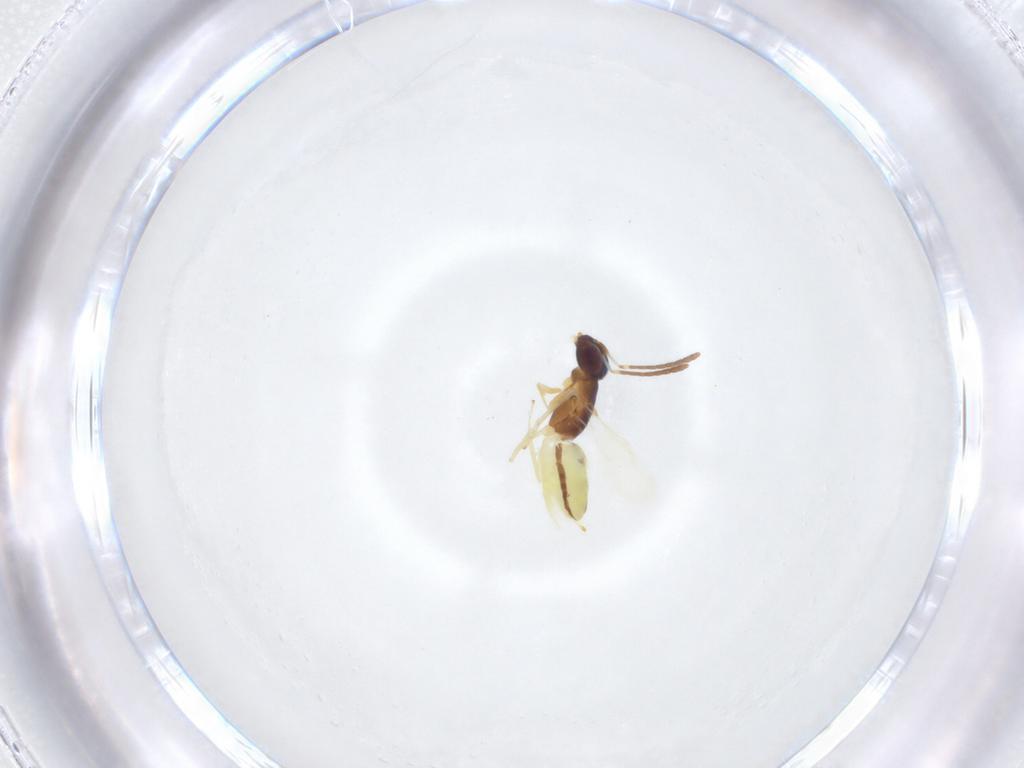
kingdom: Animalia
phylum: Arthropoda
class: Insecta
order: Hymenoptera
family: Encyrtidae
